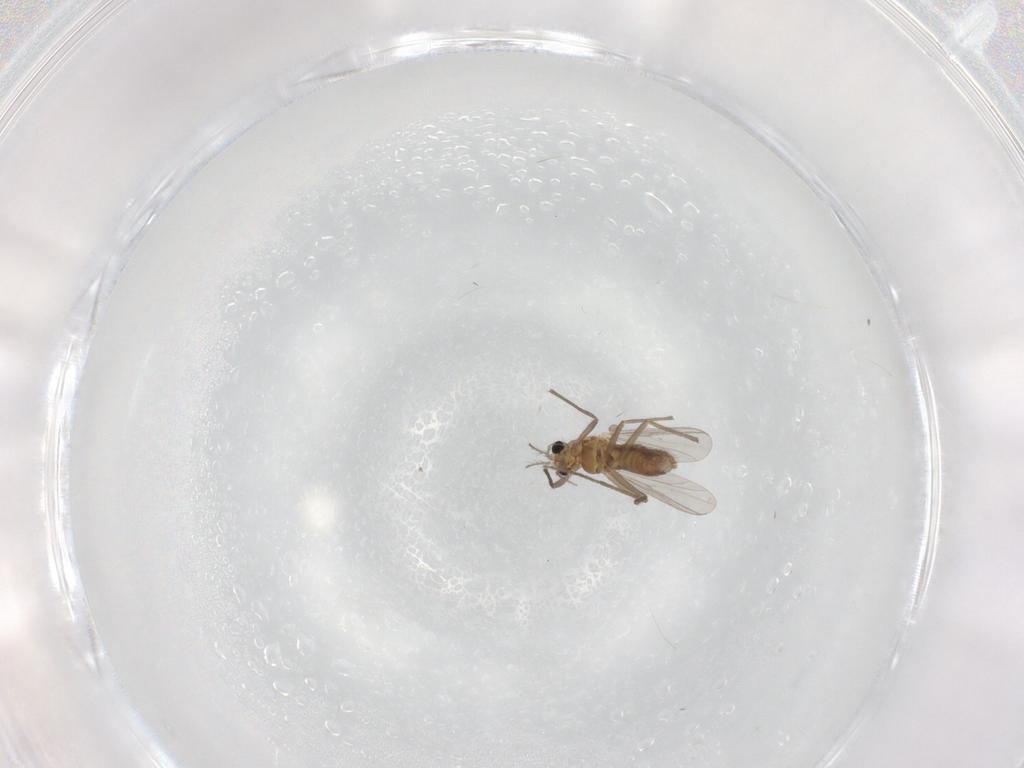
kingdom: Animalia
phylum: Arthropoda
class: Insecta
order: Diptera
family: Chironomidae
